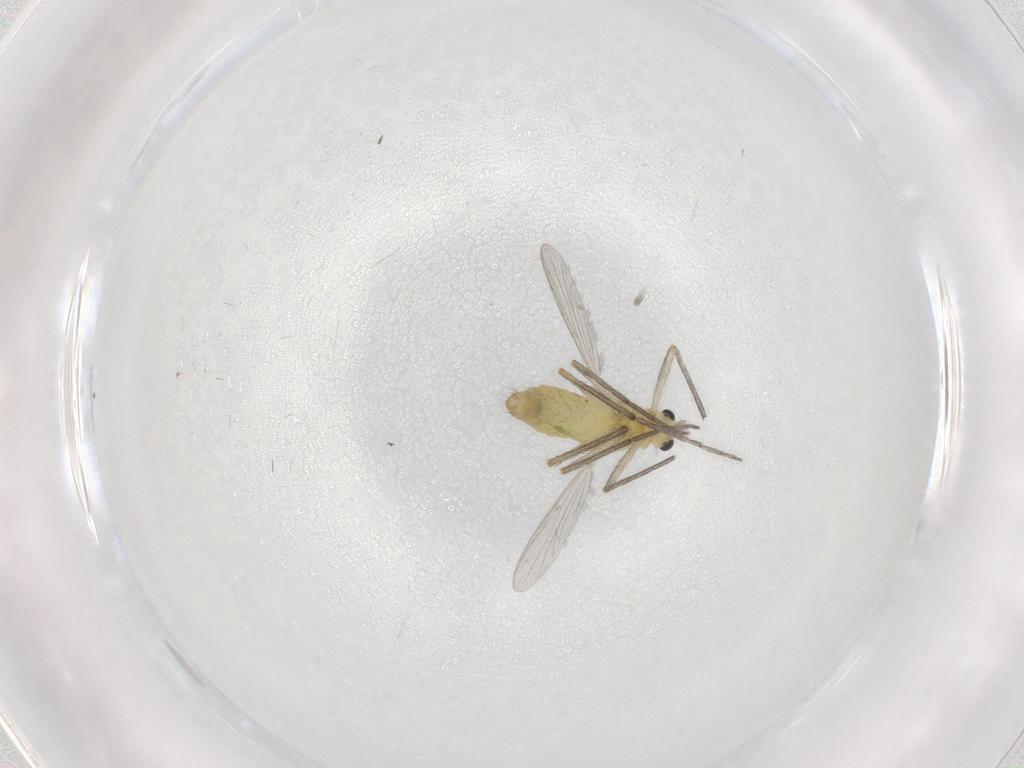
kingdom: Animalia
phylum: Arthropoda
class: Insecta
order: Diptera
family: Chironomidae
